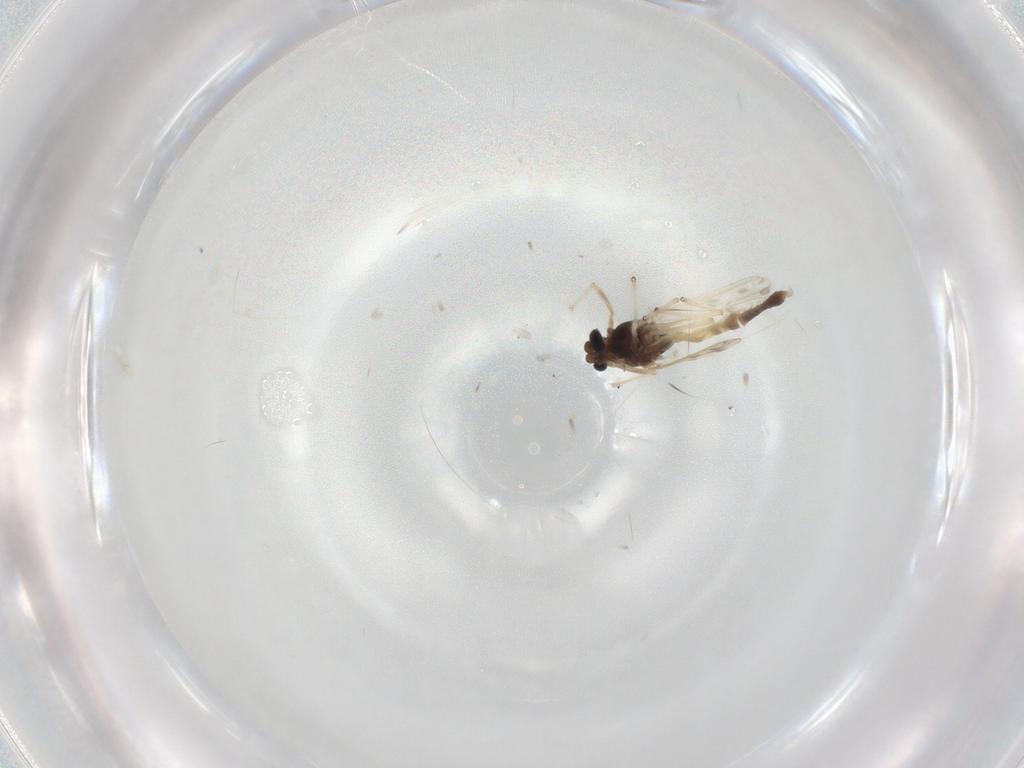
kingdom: Animalia
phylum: Arthropoda
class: Insecta
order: Diptera
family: Chironomidae
